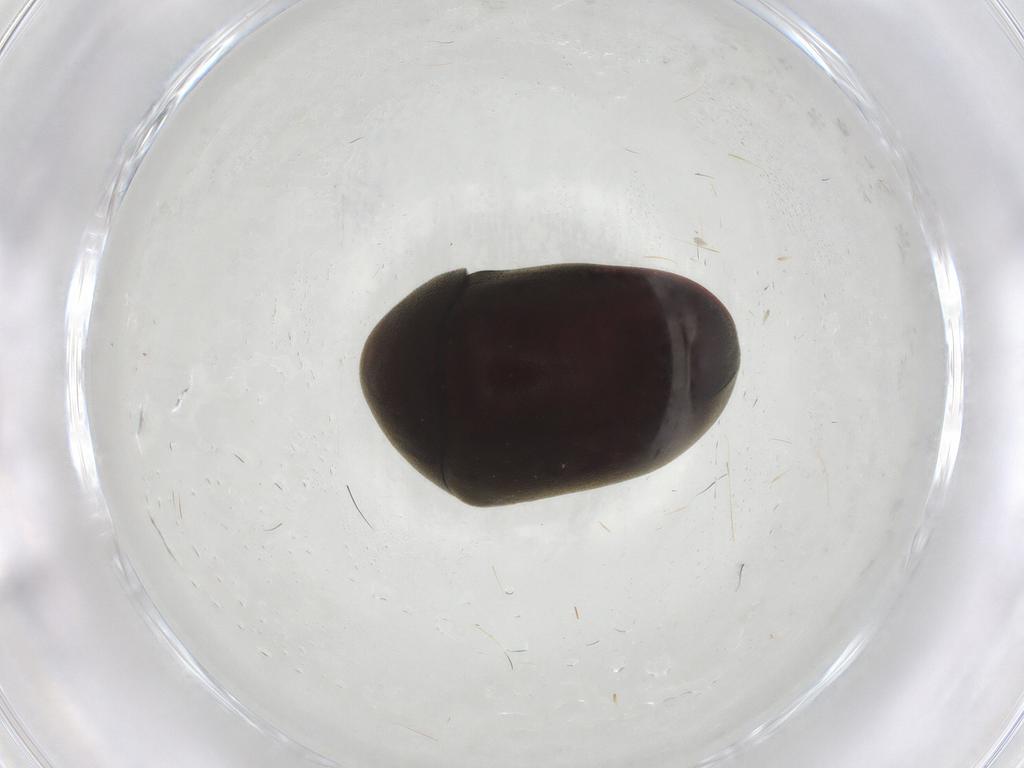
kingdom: Animalia
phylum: Arthropoda
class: Insecta
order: Coleoptera
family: Ptinidae
